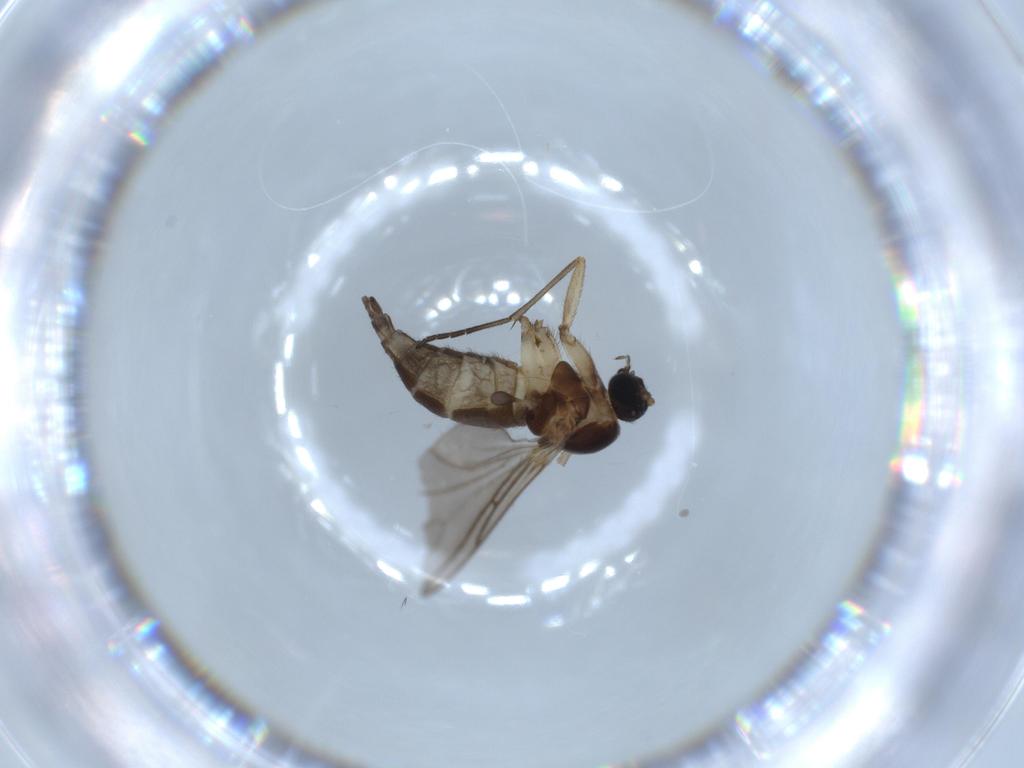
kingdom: Animalia
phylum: Arthropoda
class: Insecta
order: Diptera
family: Sciaridae
